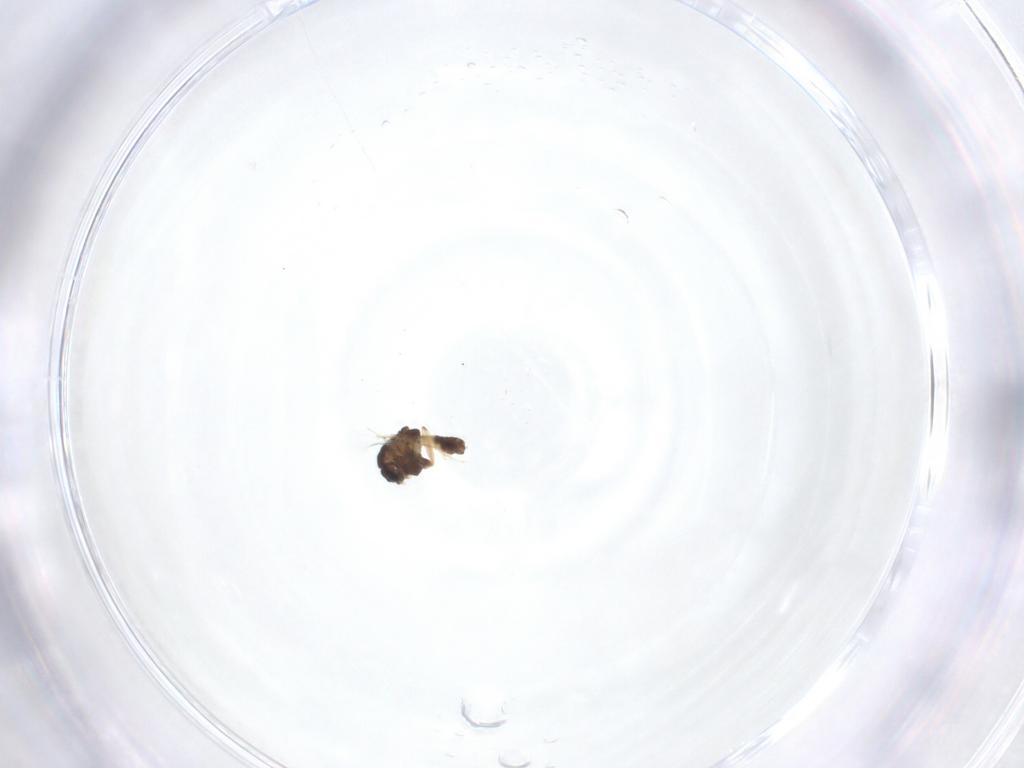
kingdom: Animalia
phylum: Arthropoda
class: Insecta
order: Diptera
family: Chironomidae
